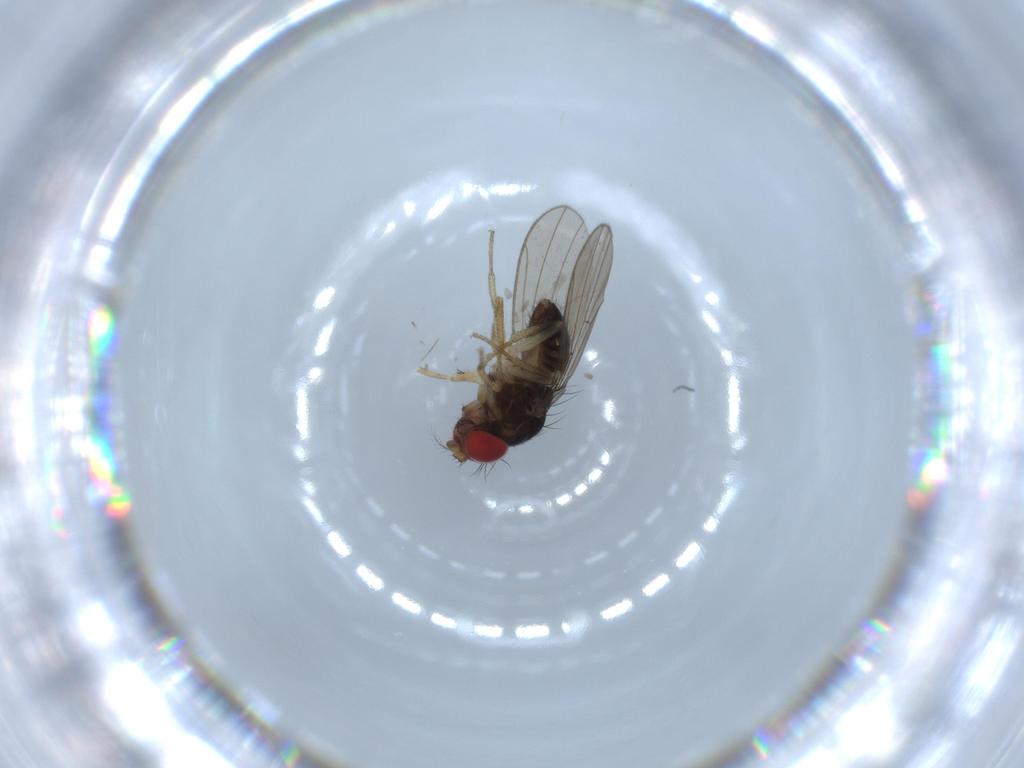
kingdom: Animalia
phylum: Arthropoda
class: Insecta
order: Diptera
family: Drosophilidae
